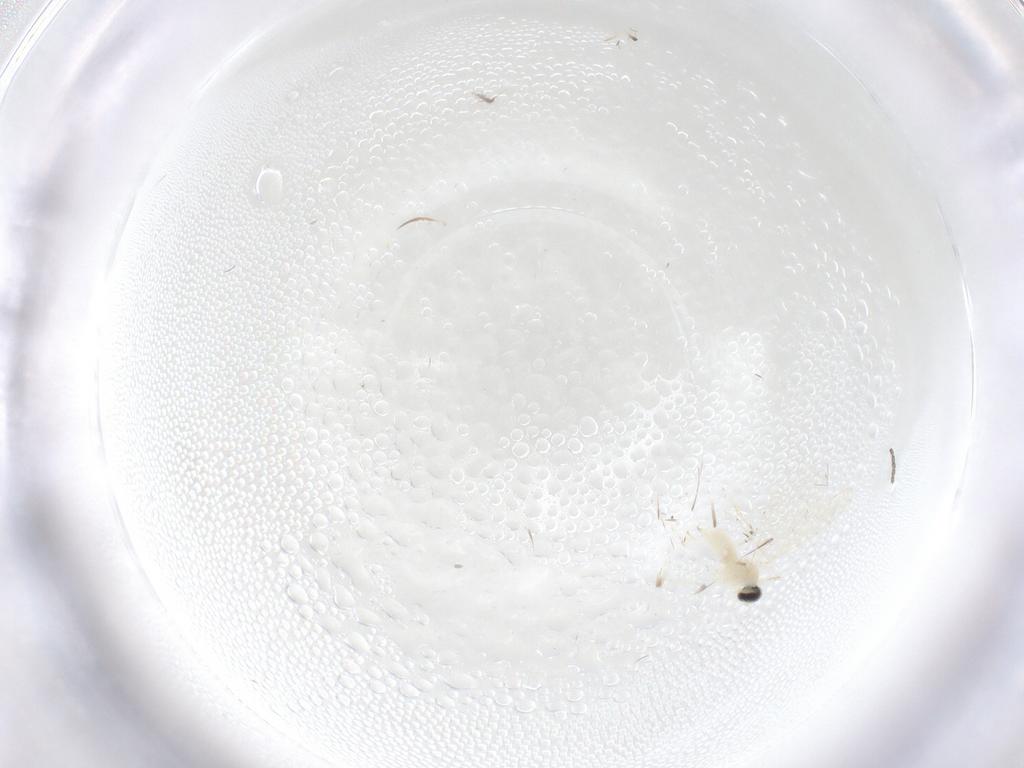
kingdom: Animalia
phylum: Arthropoda
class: Insecta
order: Diptera
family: Cecidomyiidae
